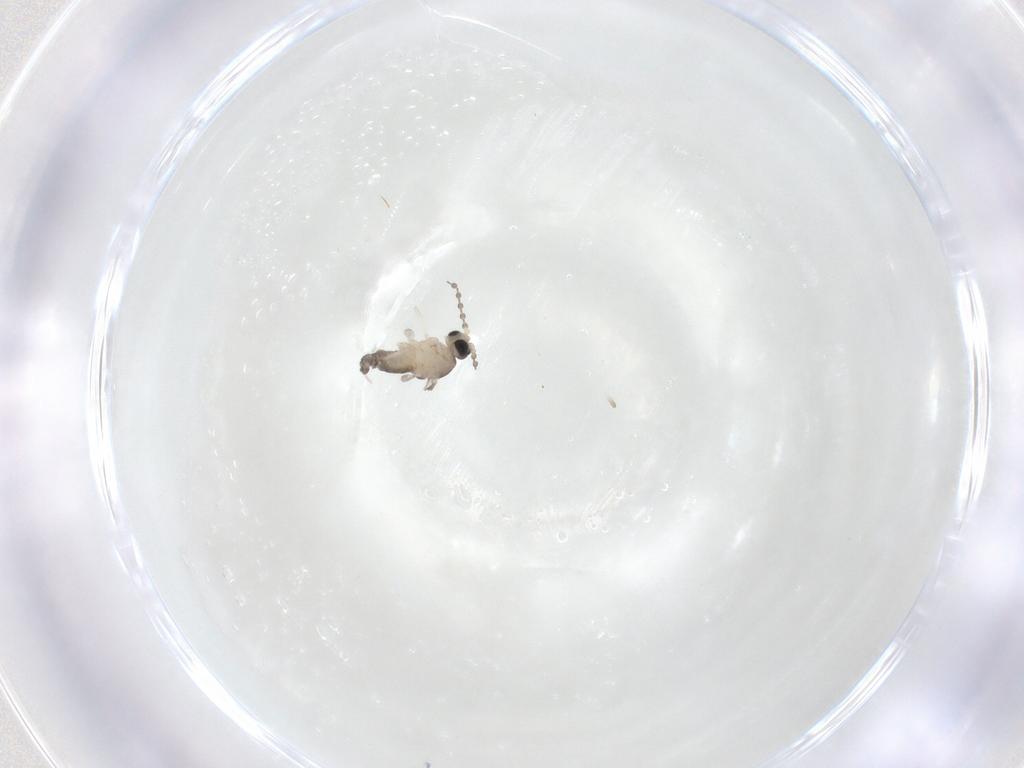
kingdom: Animalia
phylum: Arthropoda
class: Insecta
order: Diptera
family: Cecidomyiidae
